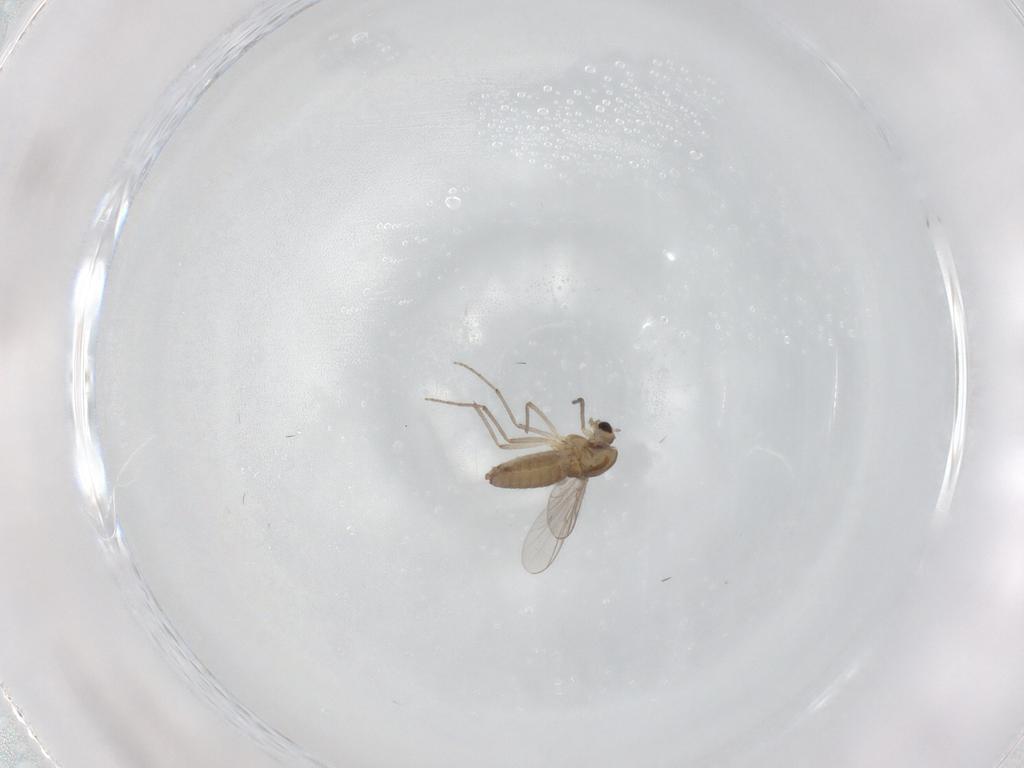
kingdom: Animalia
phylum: Arthropoda
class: Insecta
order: Diptera
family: Chironomidae
